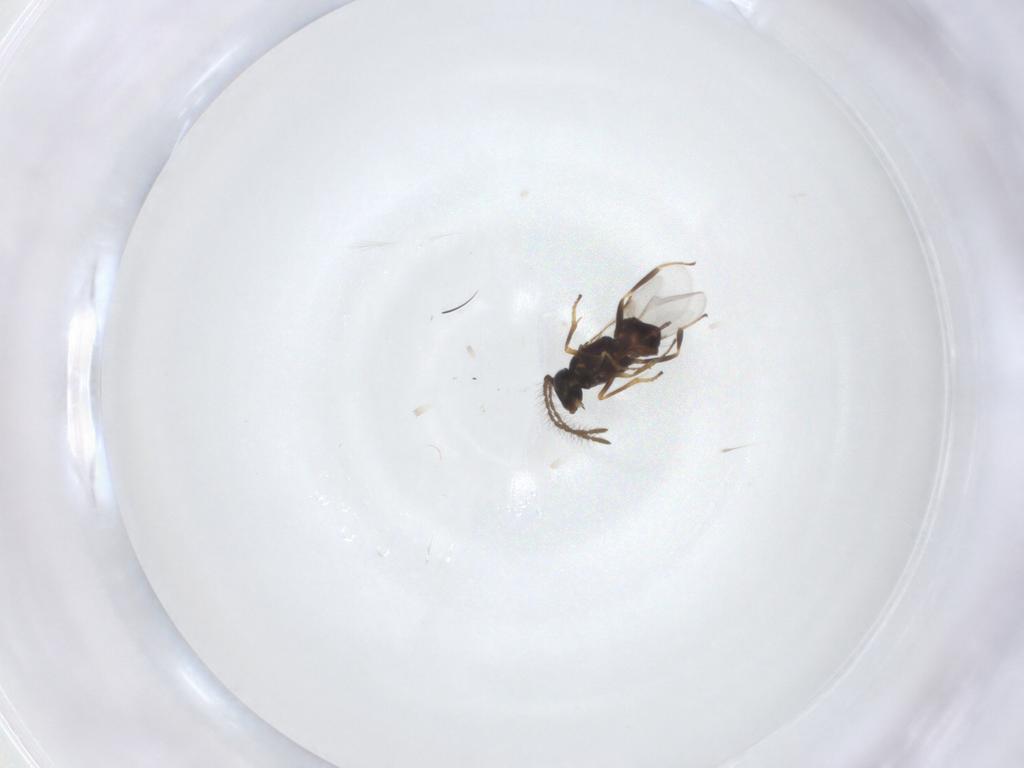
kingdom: Animalia
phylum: Arthropoda
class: Insecta
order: Hymenoptera
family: Encyrtidae
